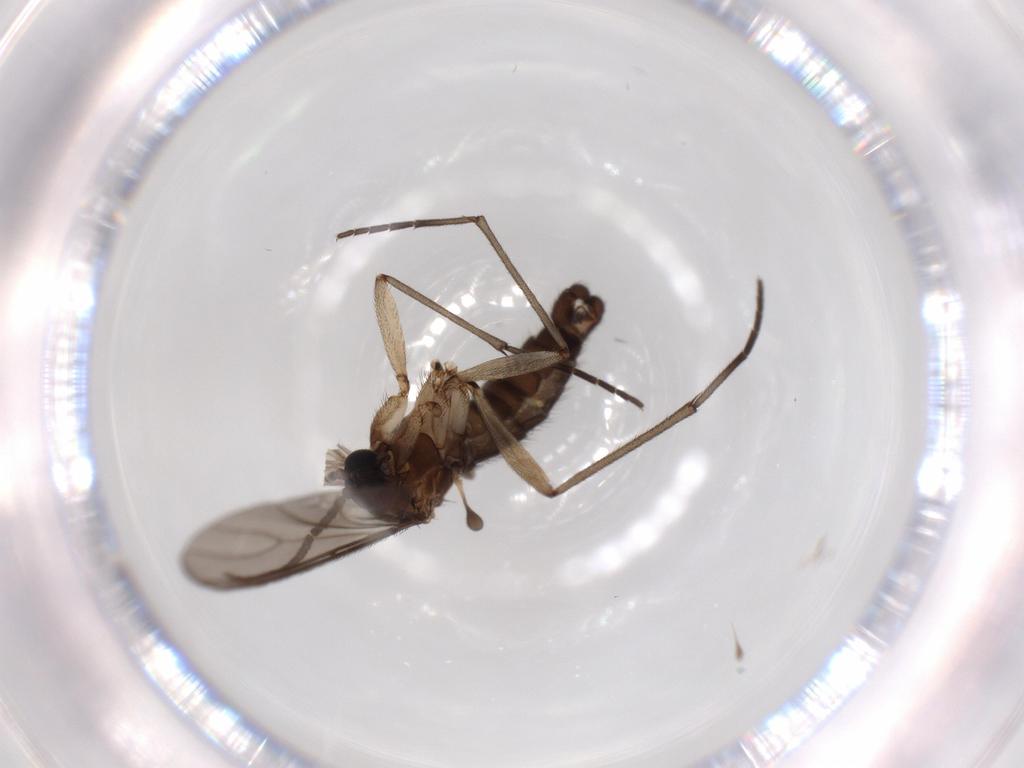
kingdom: Animalia
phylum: Arthropoda
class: Insecta
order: Diptera
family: Sciaridae
